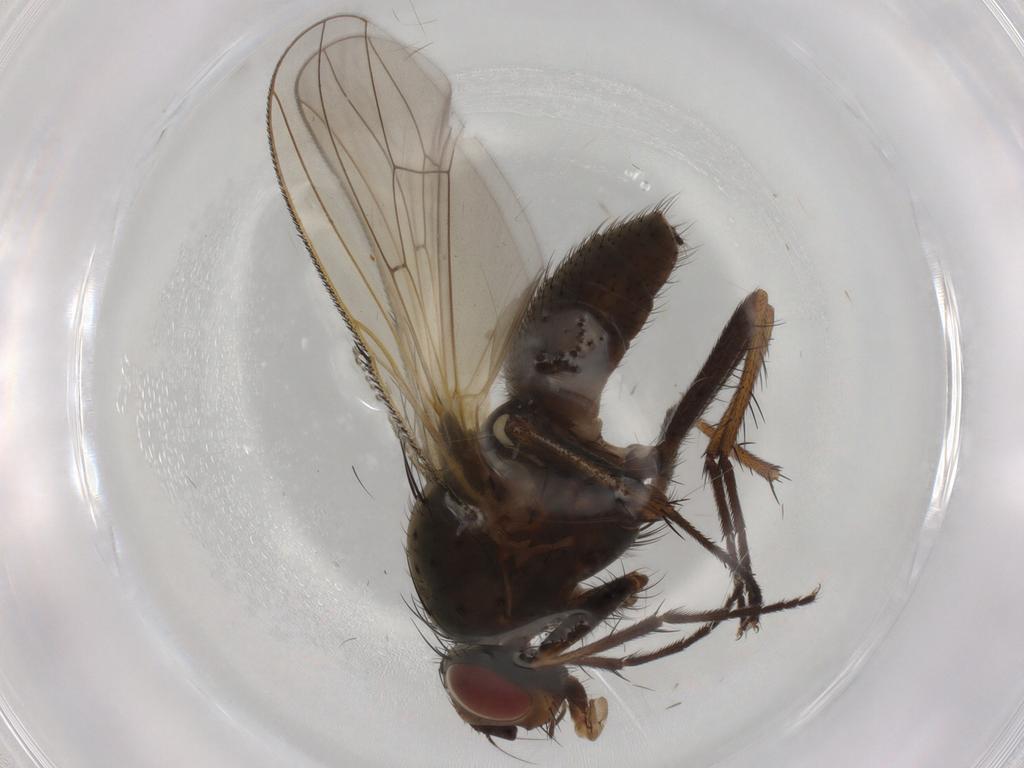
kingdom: Animalia
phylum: Arthropoda
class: Insecta
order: Diptera
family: Anthomyiidae
